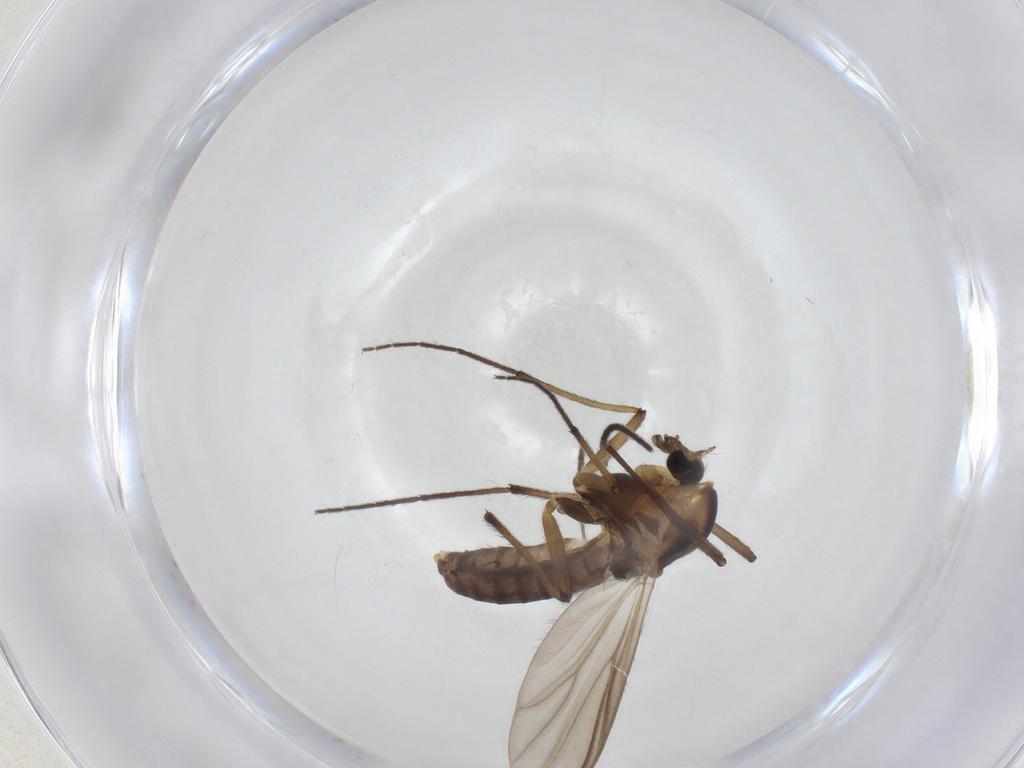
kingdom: Animalia
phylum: Arthropoda
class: Insecta
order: Diptera
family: Chironomidae
